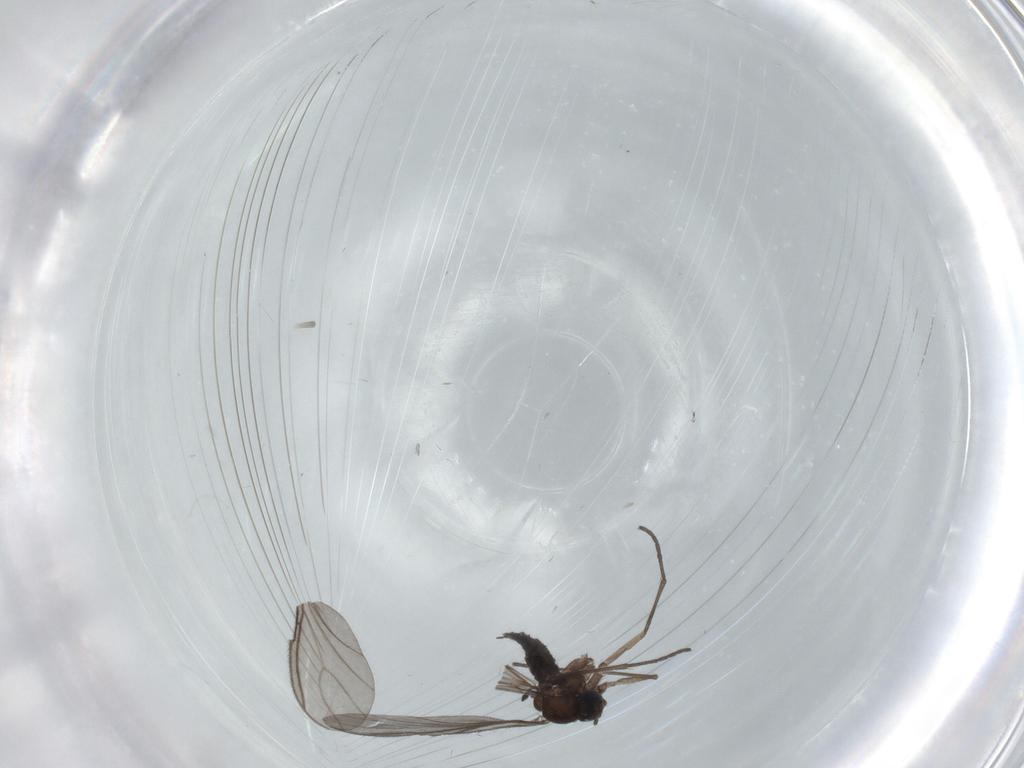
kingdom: Animalia
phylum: Arthropoda
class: Insecta
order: Diptera
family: Sciaridae
